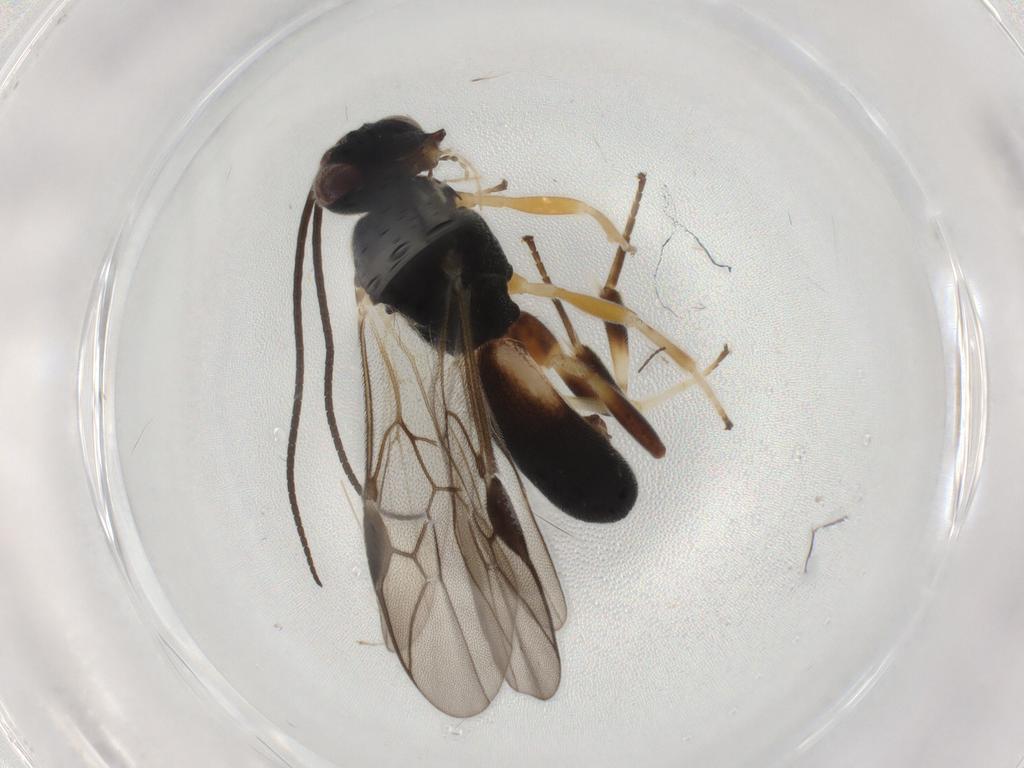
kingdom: Animalia
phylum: Arthropoda
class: Insecta
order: Hymenoptera
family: Braconidae
